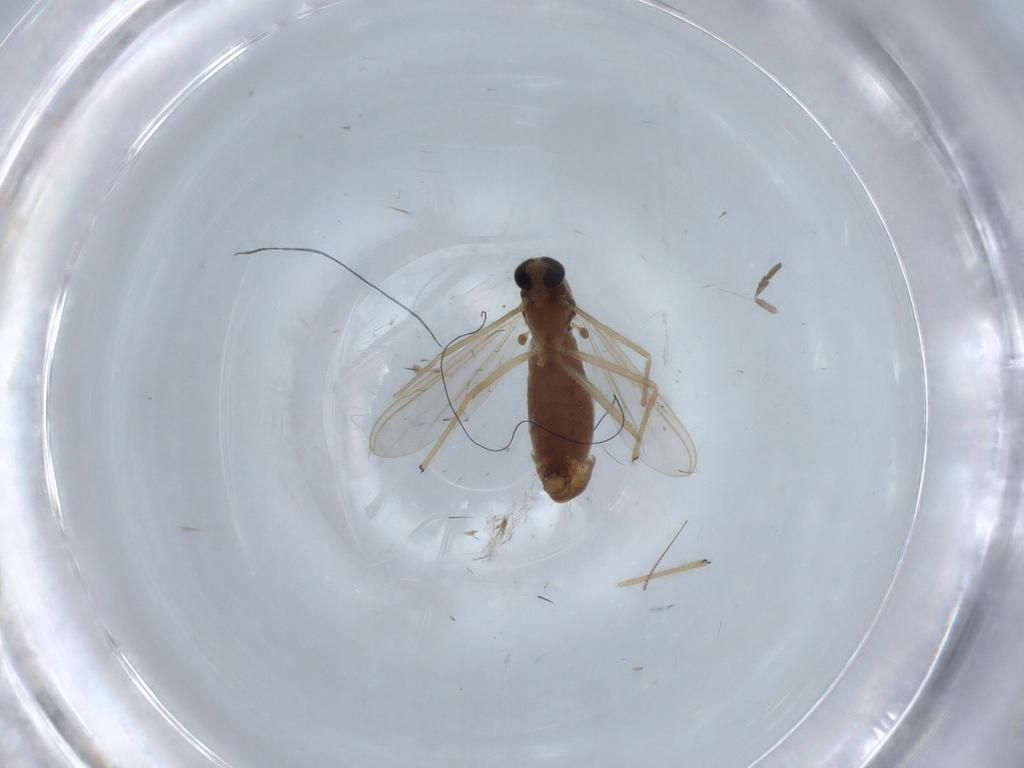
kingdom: Animalia
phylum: Arthropoda
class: Insecta
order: Diptera
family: Chironomidae
